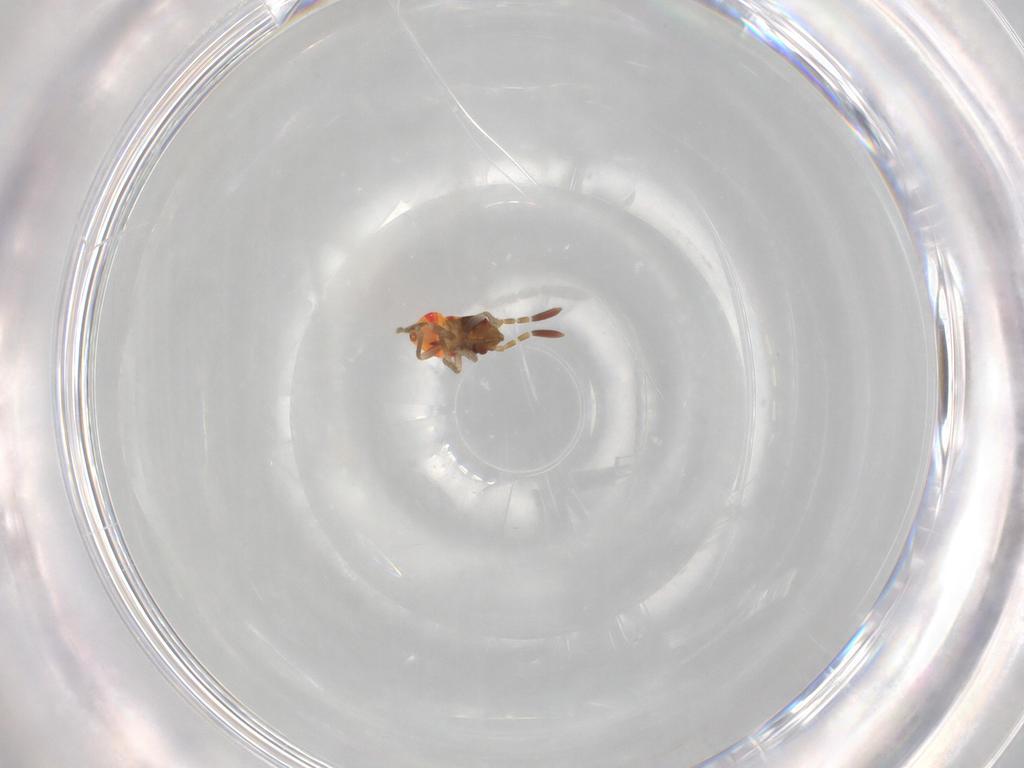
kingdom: Animalia
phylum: Arthropoda
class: Insecta
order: Hemiptera
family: Rhyparochromidae
